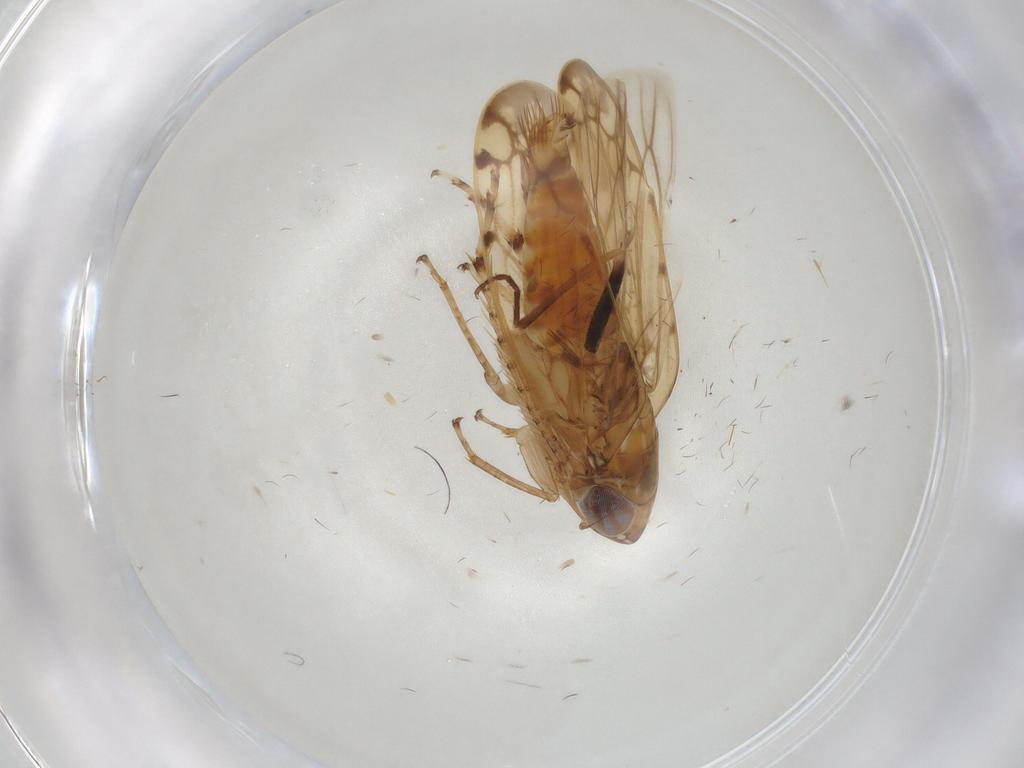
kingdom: Animalia
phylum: Arthropoda
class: Insecta
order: Hemiptera
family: Cicadellidae
